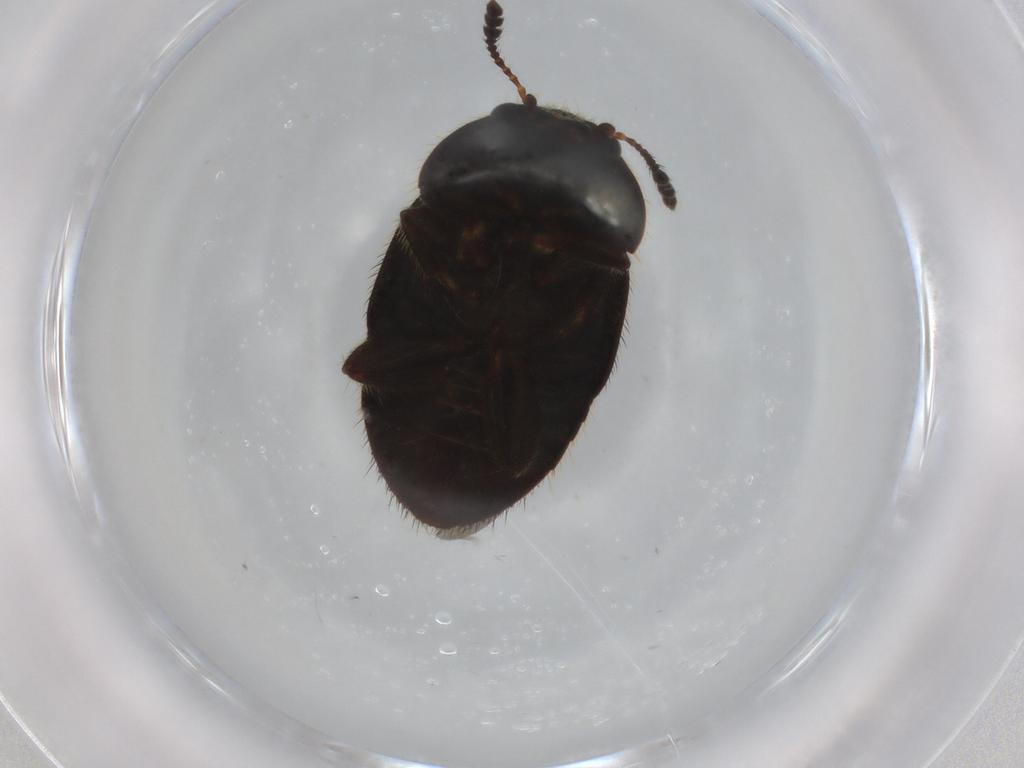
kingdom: Animalia
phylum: Arthropoda
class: Insecta
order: Coleoptera
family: Nitidulidae
